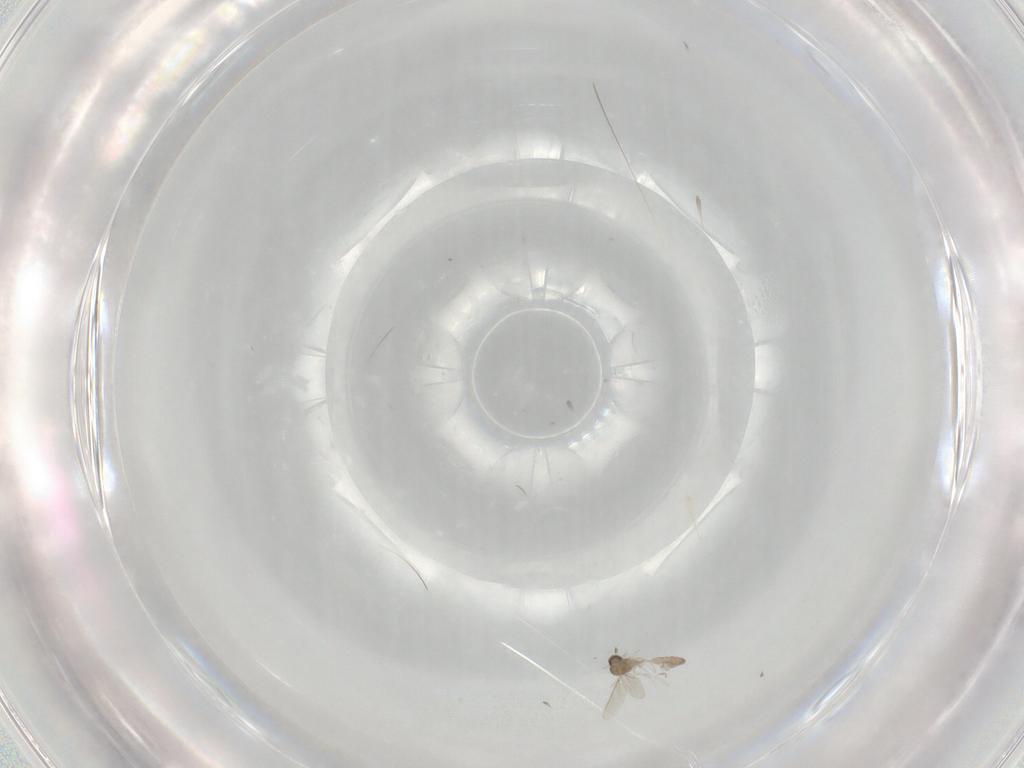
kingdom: Animalia
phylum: Arthropoda
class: Insecta
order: Diptera
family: Cecidomyiidae
